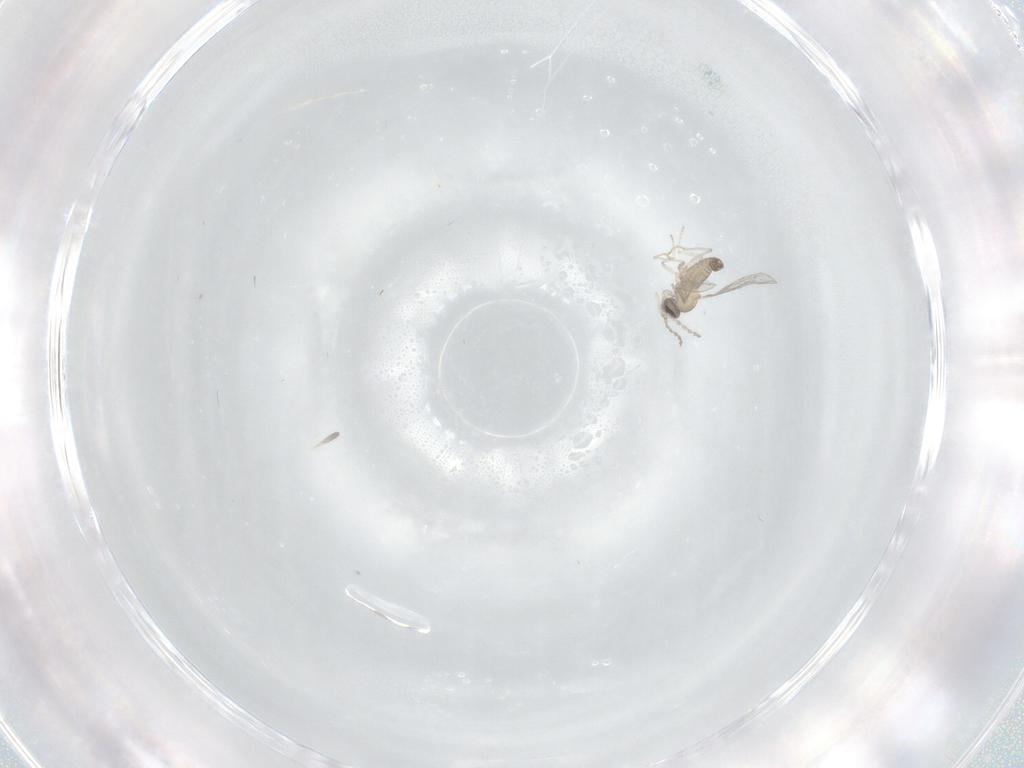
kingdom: Animalia
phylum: Arthropoda
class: Insecta
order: Diptera
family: Cecidomyiidae
